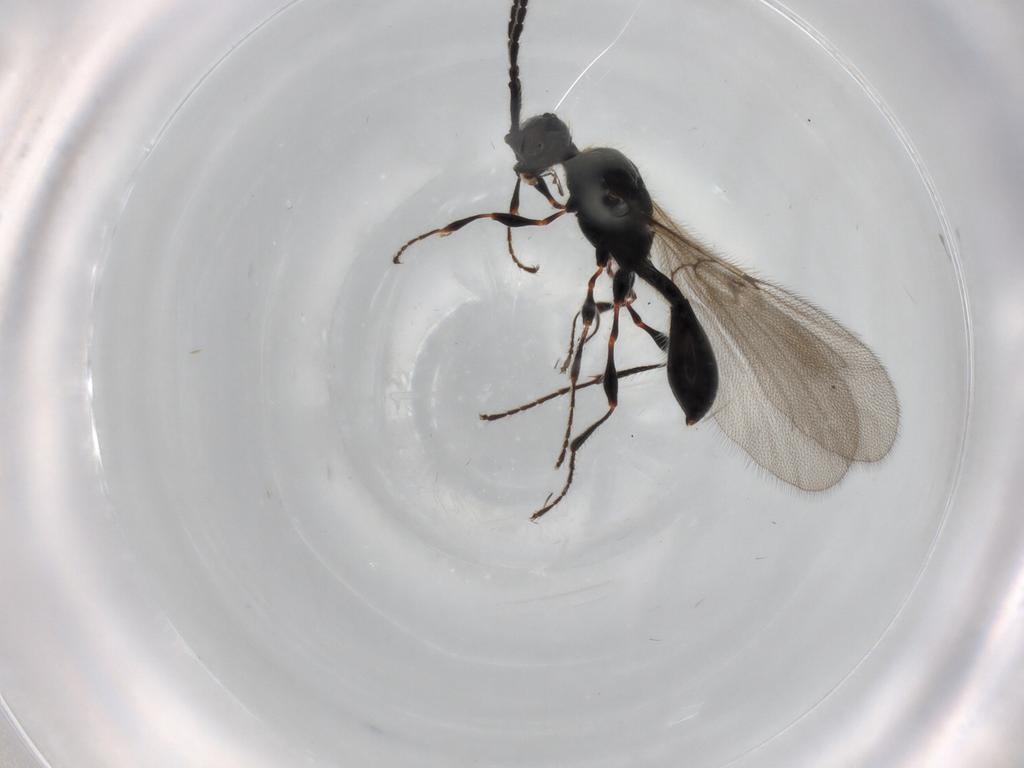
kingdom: Animalia
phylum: Arthropoda
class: Insecta
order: Hymenoptera
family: Diapriidae
